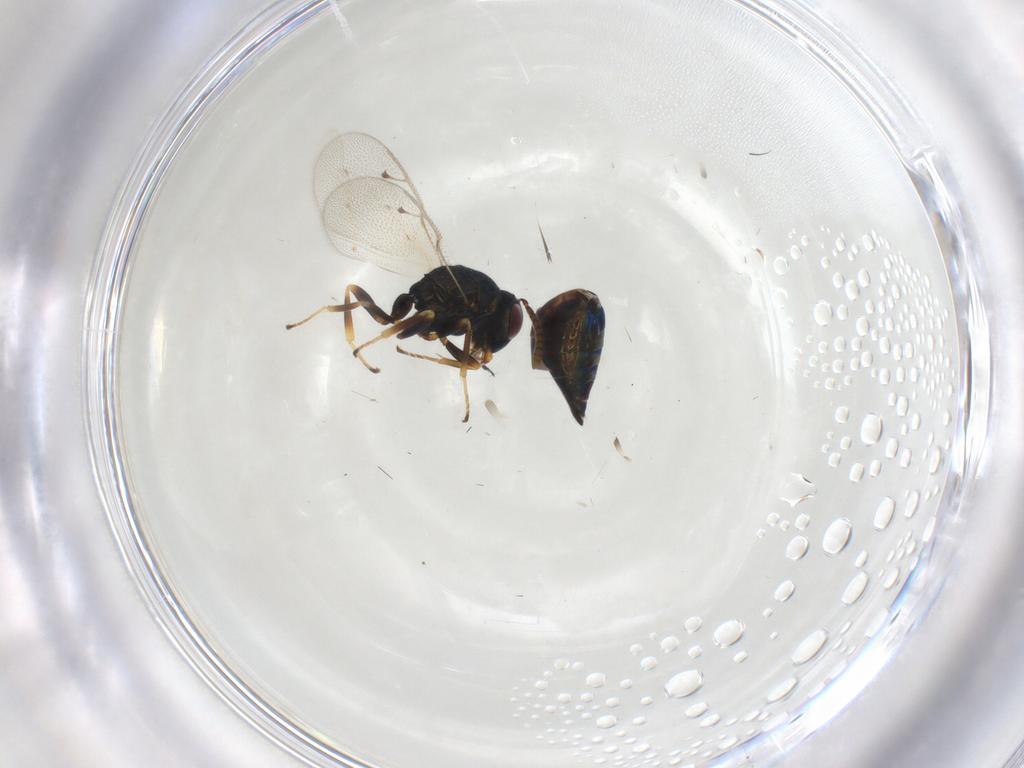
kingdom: Animalia
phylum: Arthropoda
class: Insecta
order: Hymenoptera
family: Pteromalidae
